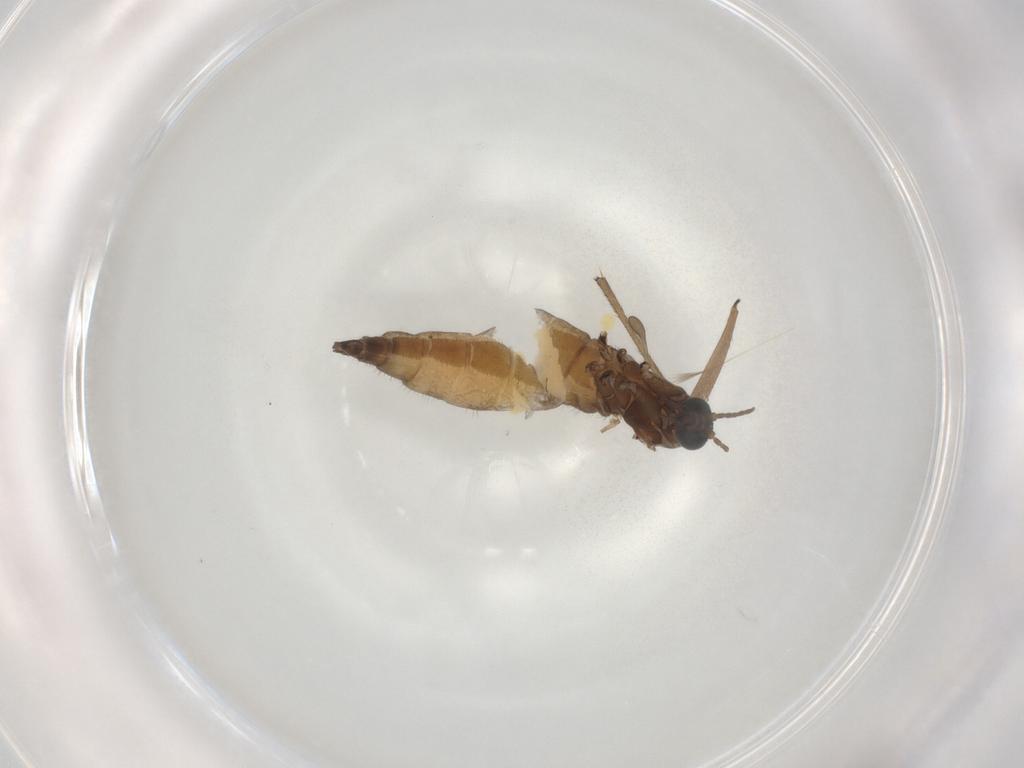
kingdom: Animalia
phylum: Arthropoda
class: Insecta
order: Diptera
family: Sciaridae
